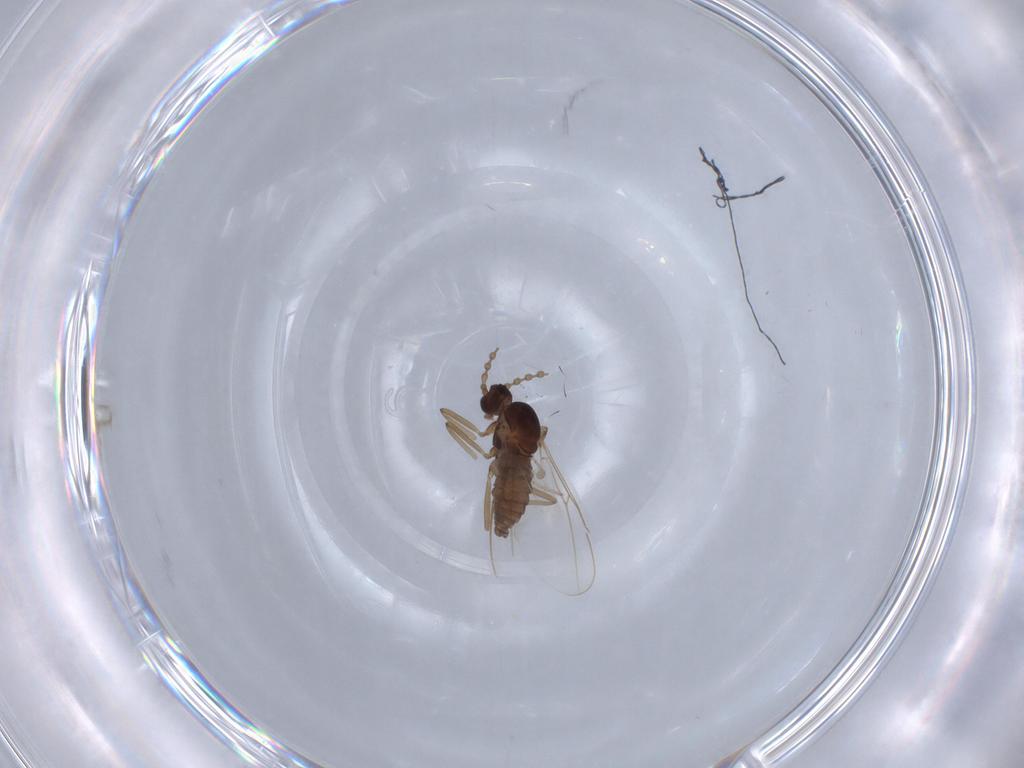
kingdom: Animalia
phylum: Arthropoda
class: Insecta
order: Diptera
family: Cecidomyiidae
